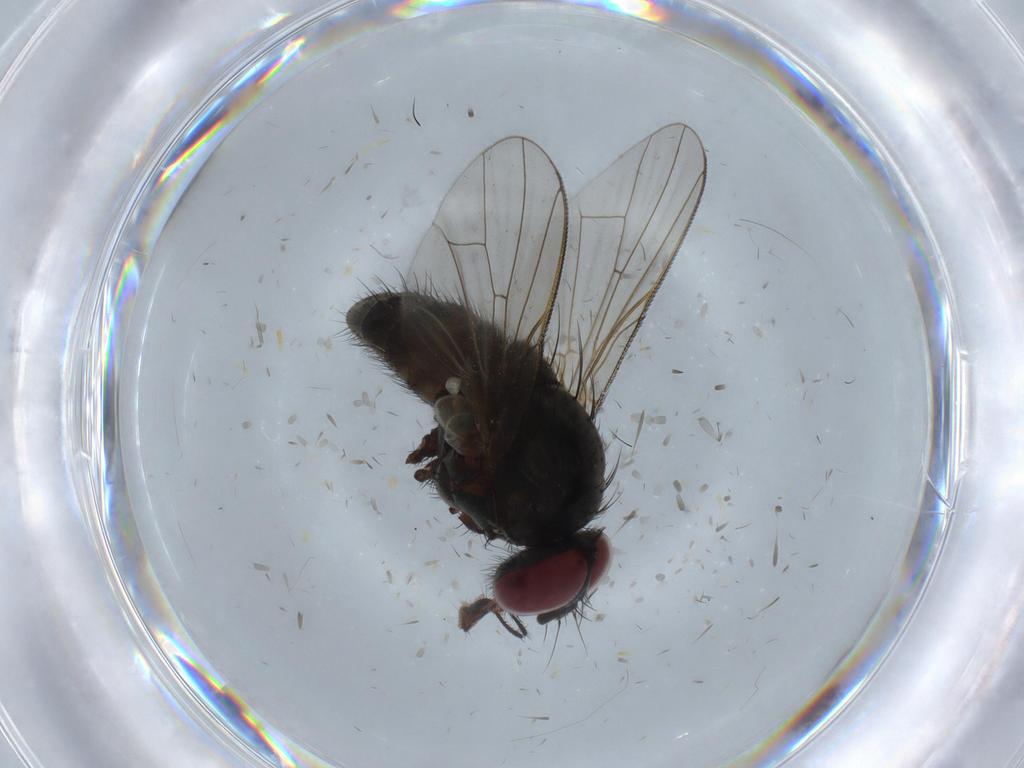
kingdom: Animalia
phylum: Arthropoda
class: Insecta
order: Diptera
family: Muscidae
